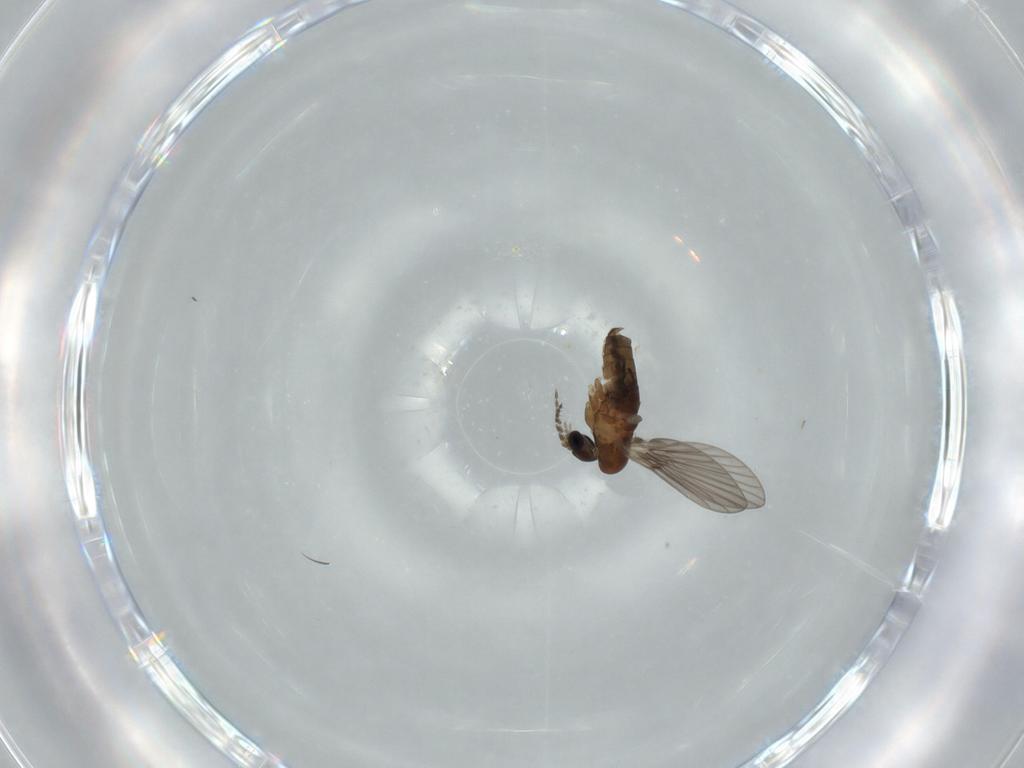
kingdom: Animalia
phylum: Arthropoda
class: Insecta
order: Diptera
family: Psychodidae
